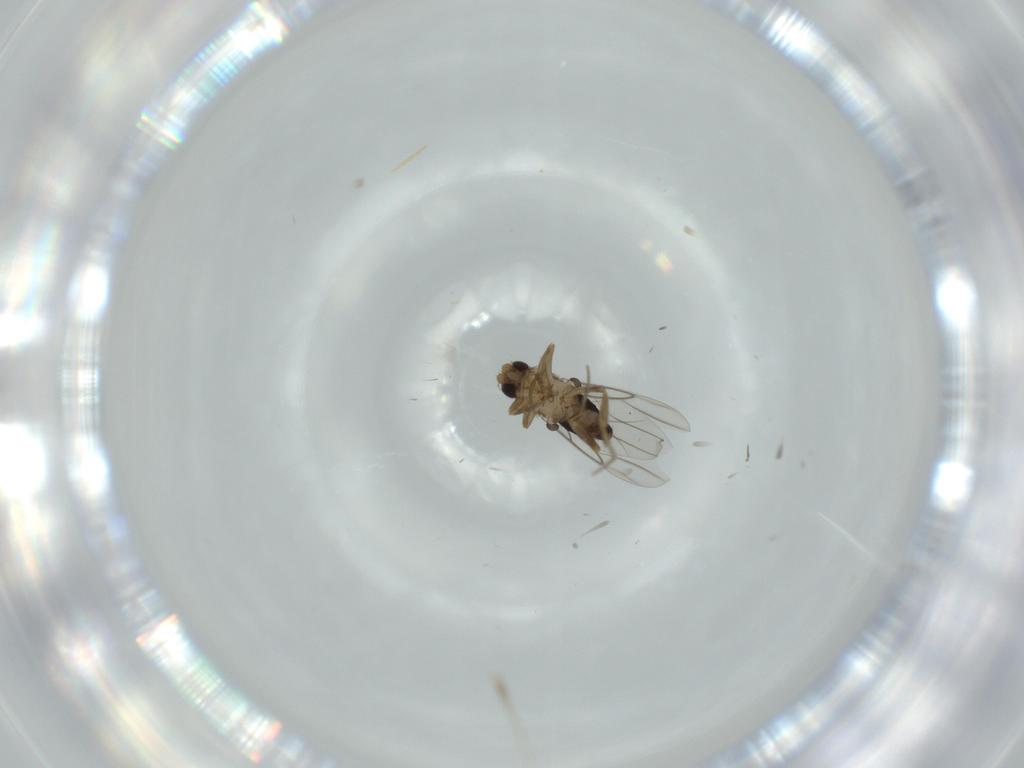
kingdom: Animalia
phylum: Arthropoda
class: Insecta
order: Diptera
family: Phoridae
